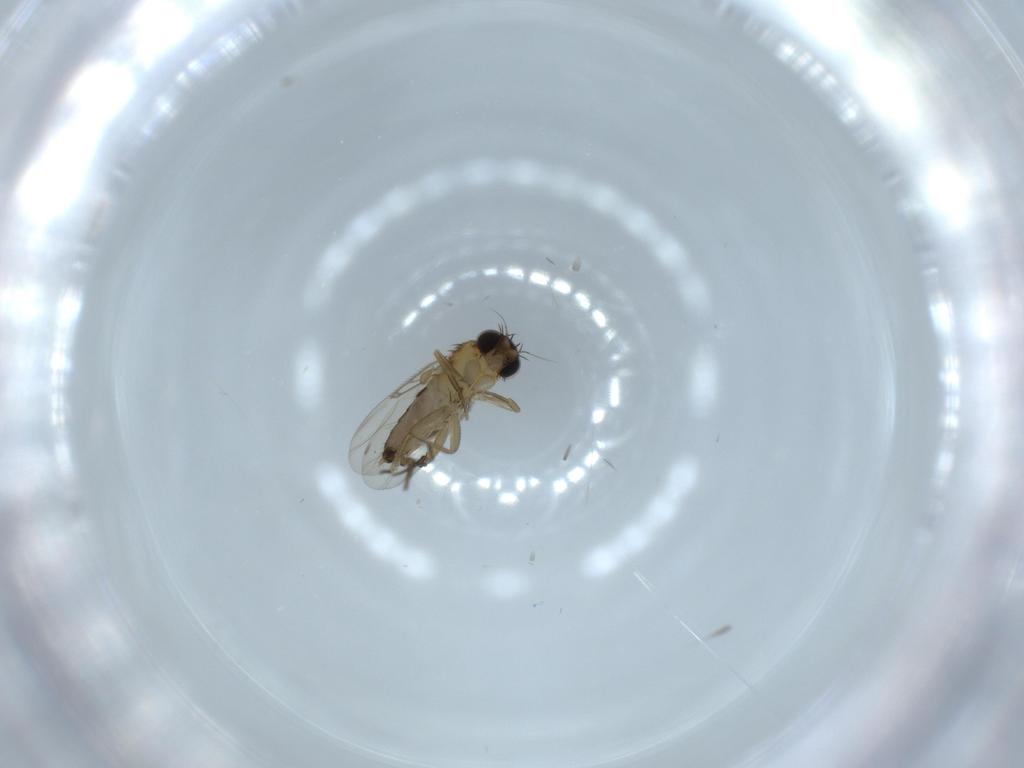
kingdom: Animalia
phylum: Arthropoda
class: Insecta
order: Diptera
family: Phoridae
